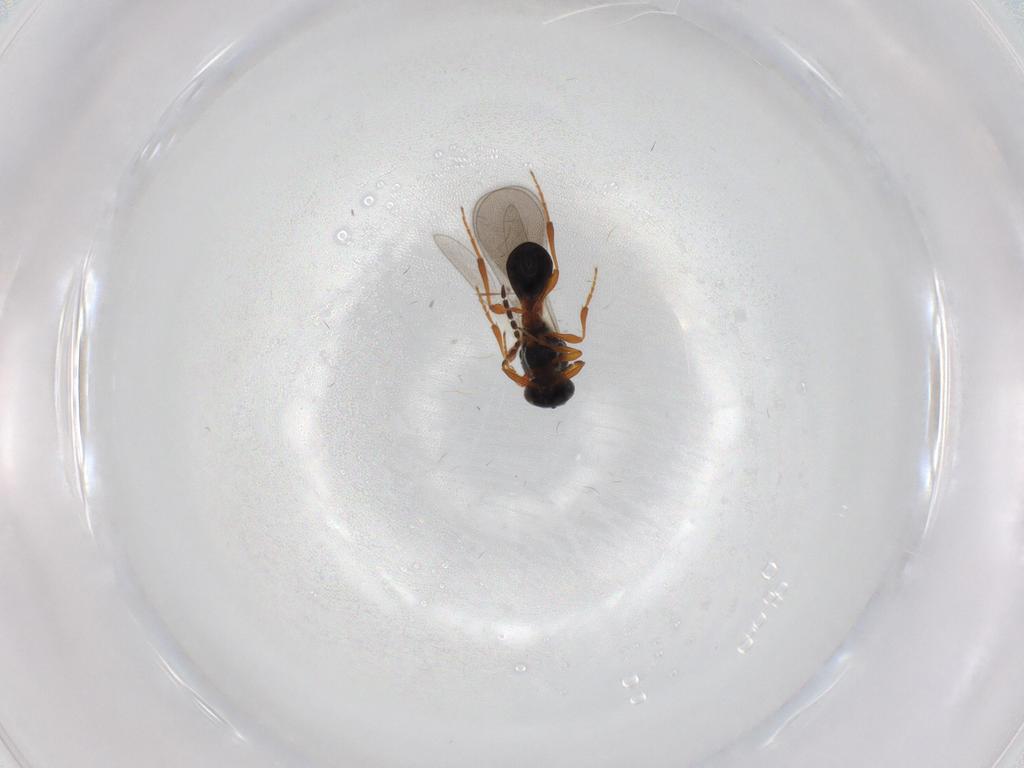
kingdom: Animalia
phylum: Arthropoda
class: Insecta
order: Hymenoptera
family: Platygastridae
